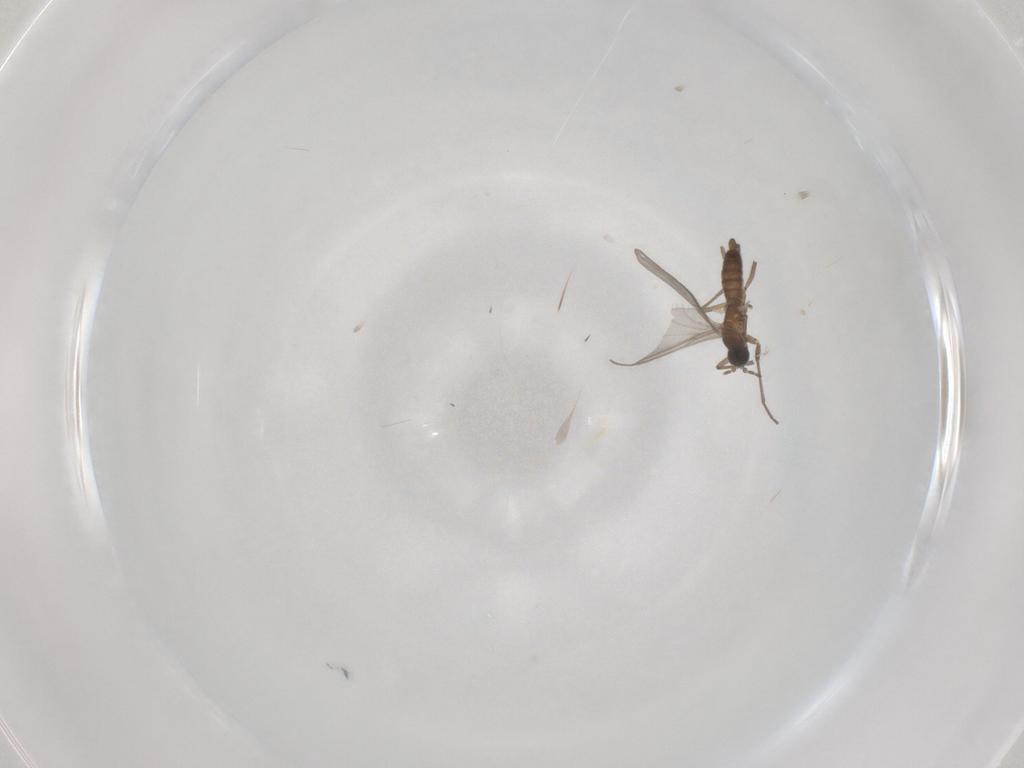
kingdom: Animalia
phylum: Arthropoda
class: Insecta
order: Diptera
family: Sciaridae
